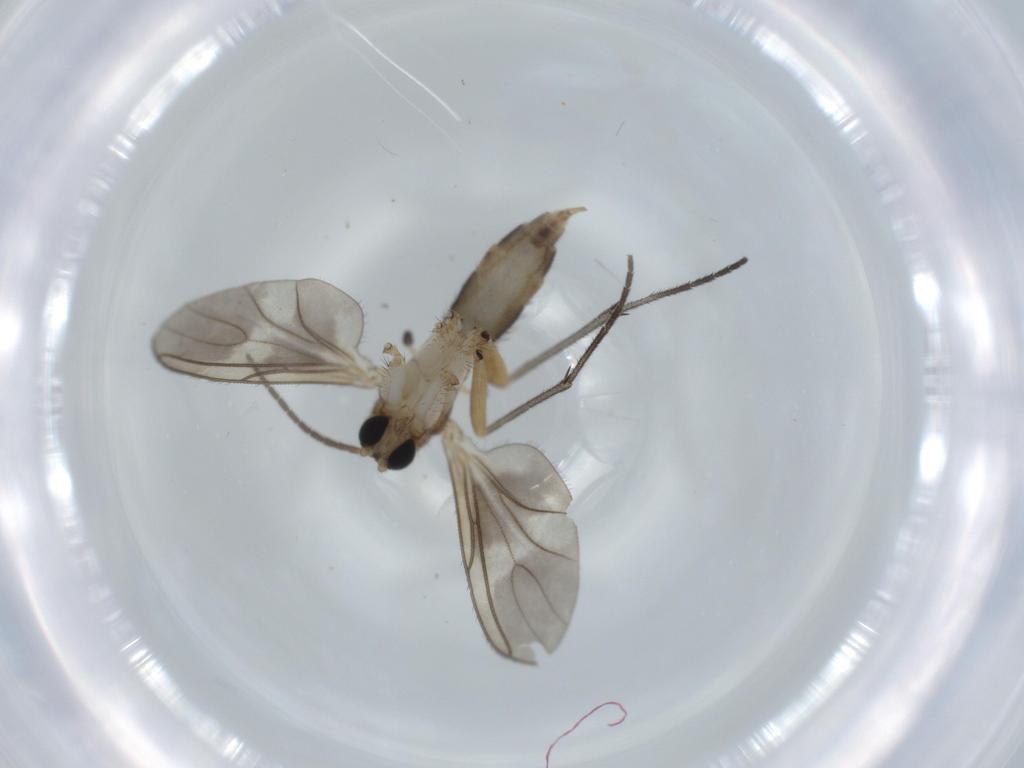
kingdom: Animalia
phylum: Arthropoda
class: Insecta
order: Diptera
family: Sciaridae
